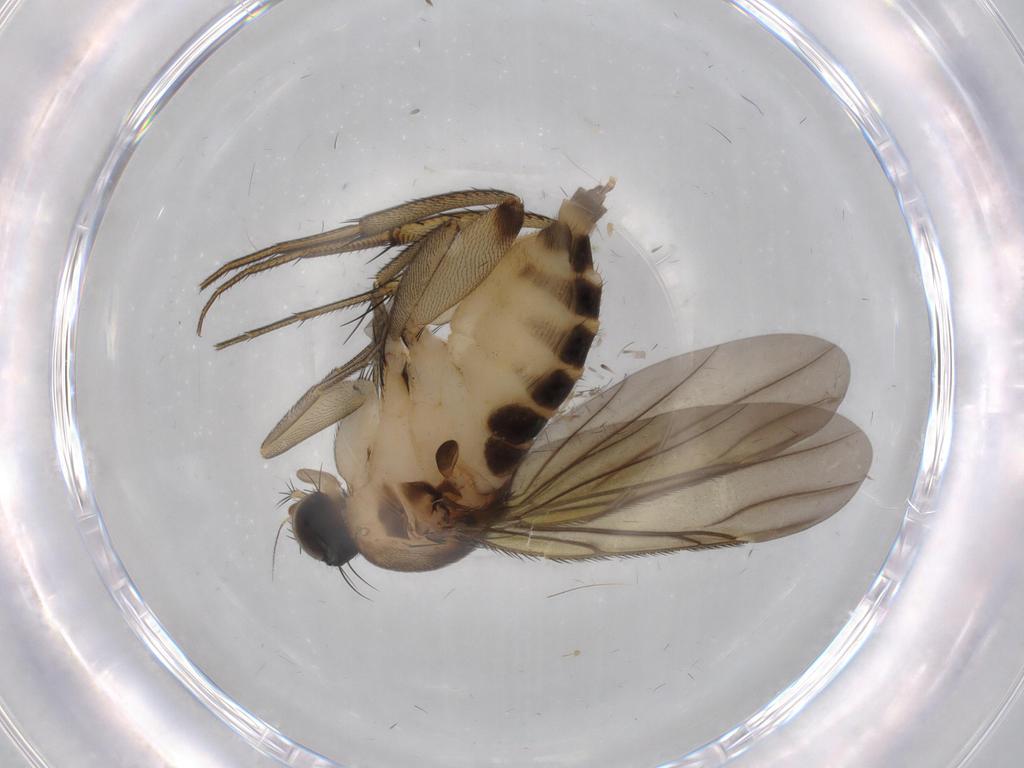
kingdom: Animalia
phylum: Arthropoda
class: Insecta
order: Diptera
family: Phoridae
